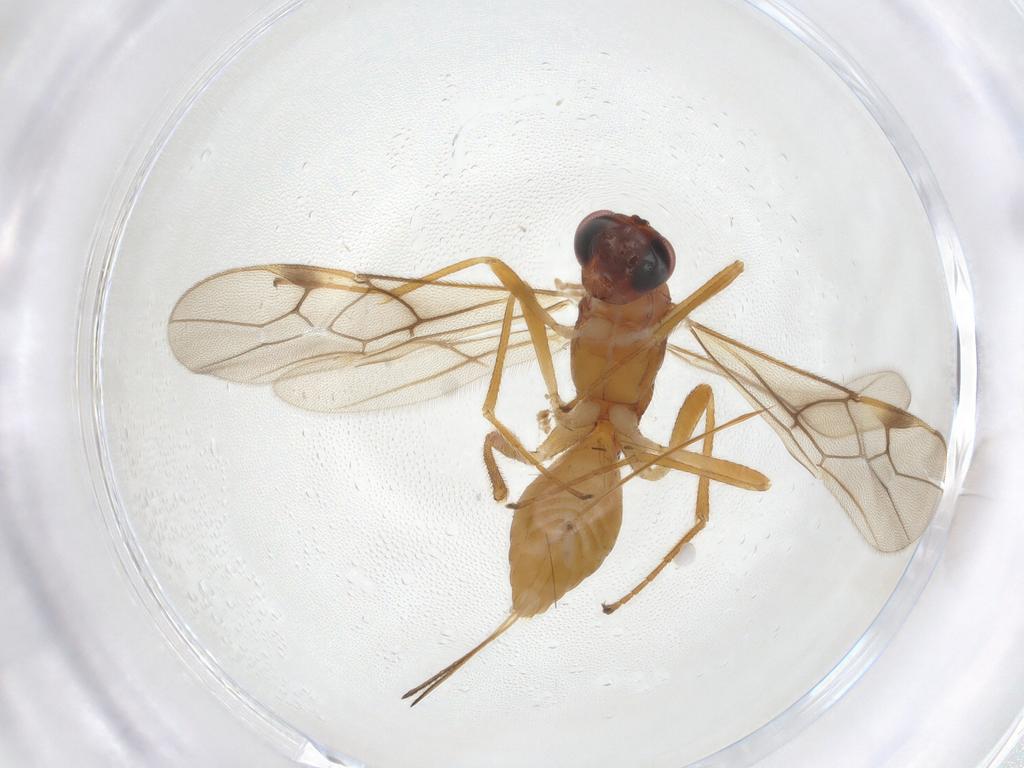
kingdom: Animalia
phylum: Arthropoda
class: Insecta
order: Hymenoptera
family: Braconidae
